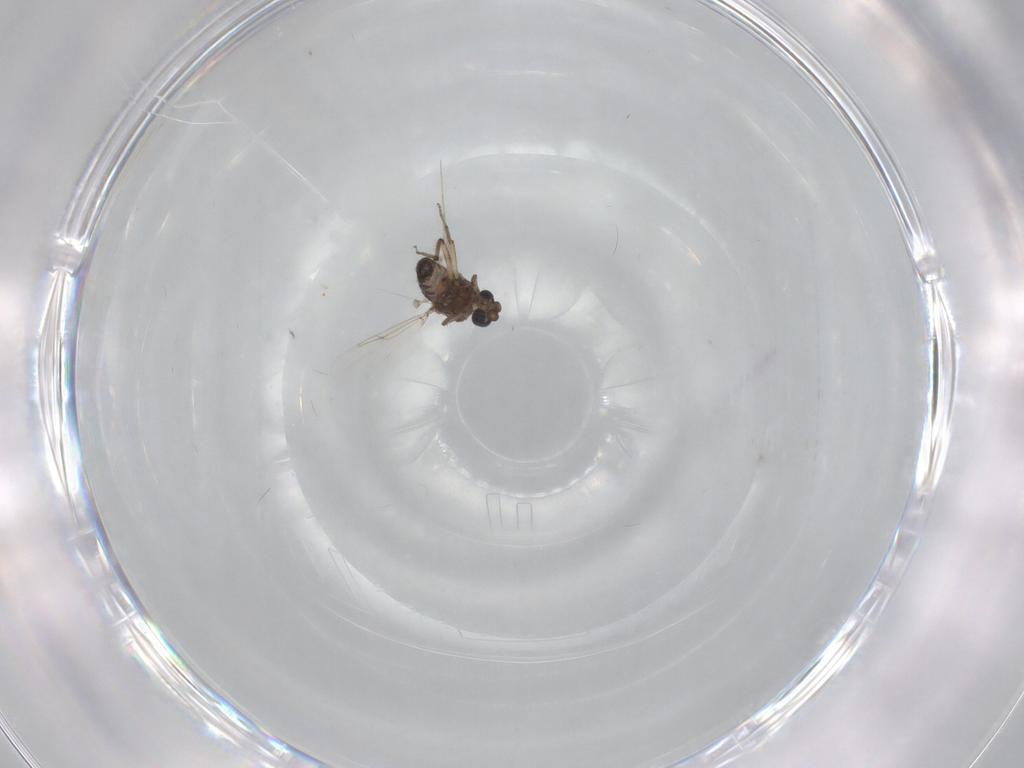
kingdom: Animalia
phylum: Arthropoda
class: Insecta
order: Diptera
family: Ceratopogonidae
